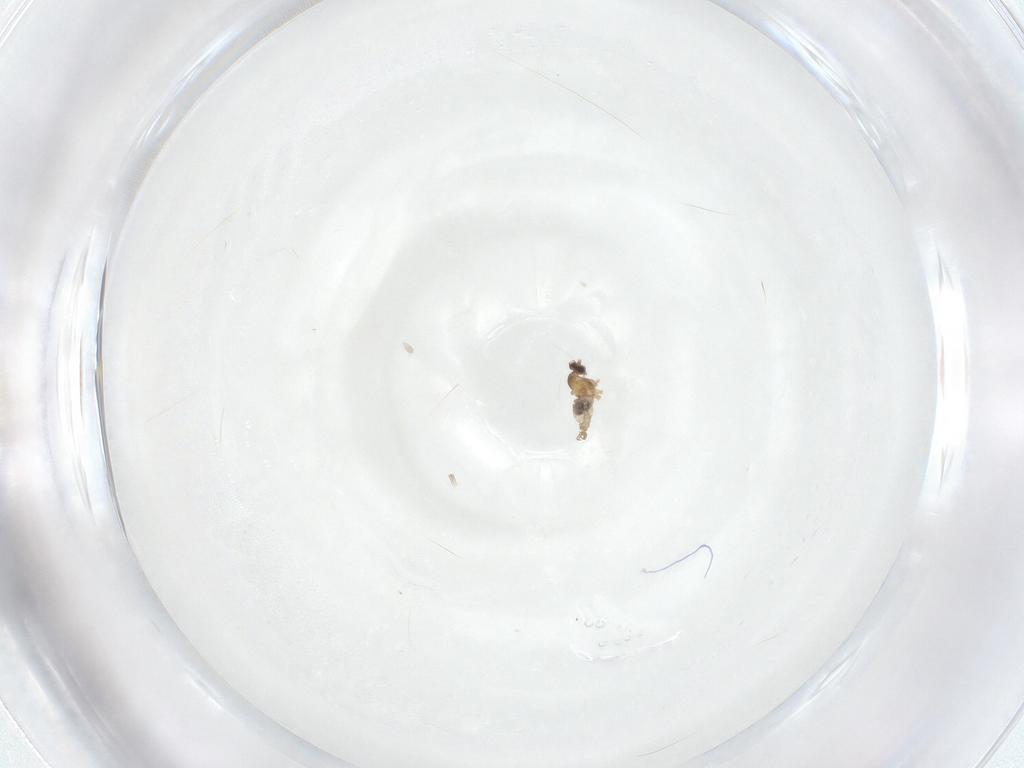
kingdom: Animalia
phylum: Arthropoda
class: Insecta
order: Diptera
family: Cecidomyiidae
